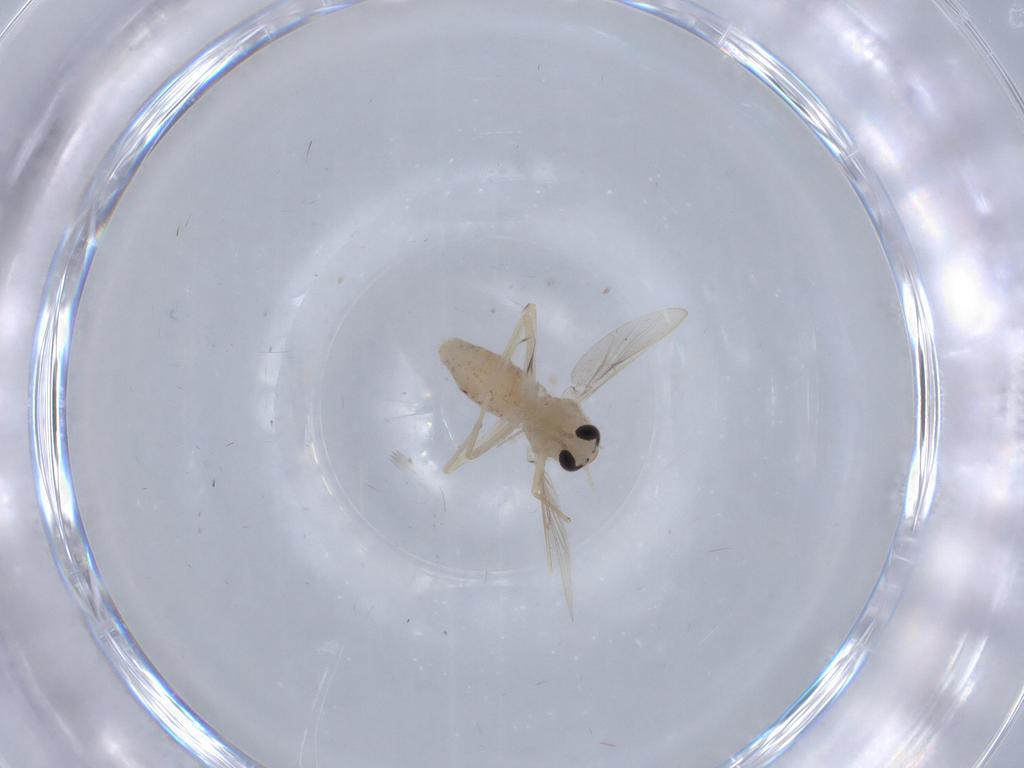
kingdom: Animalia
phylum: Arthropoda
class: Insecta
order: Diptera
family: Chironomidae
